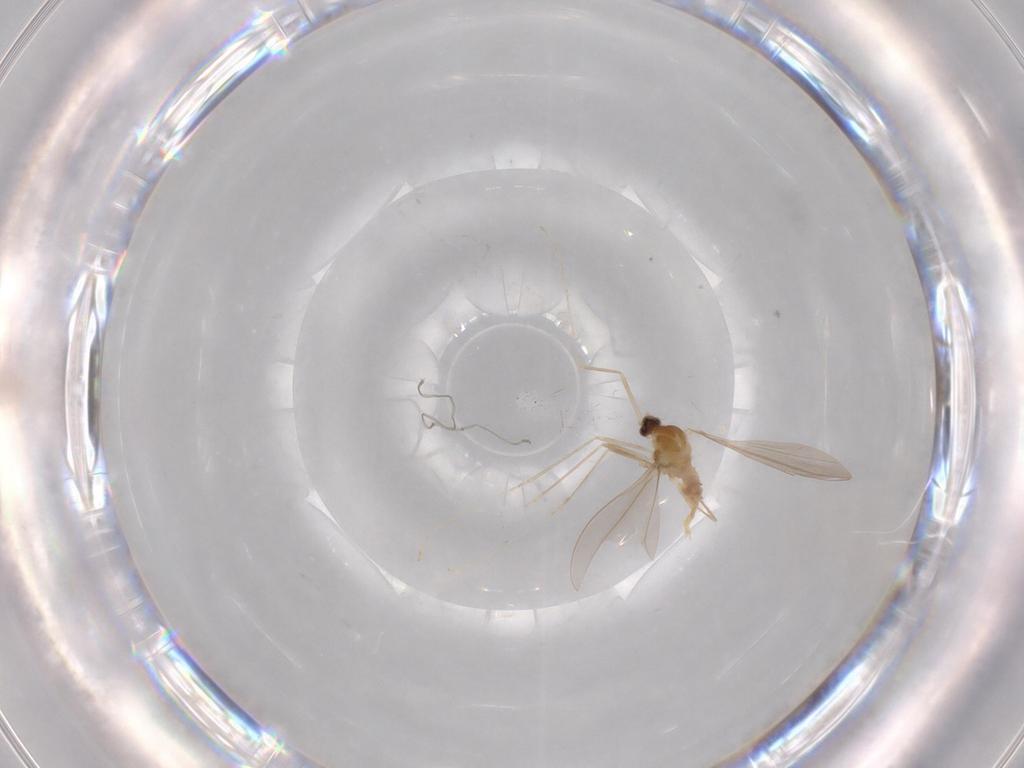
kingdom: Animalia
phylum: Arthropoda
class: Insecta
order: Diptera
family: Cecidomyiidae
